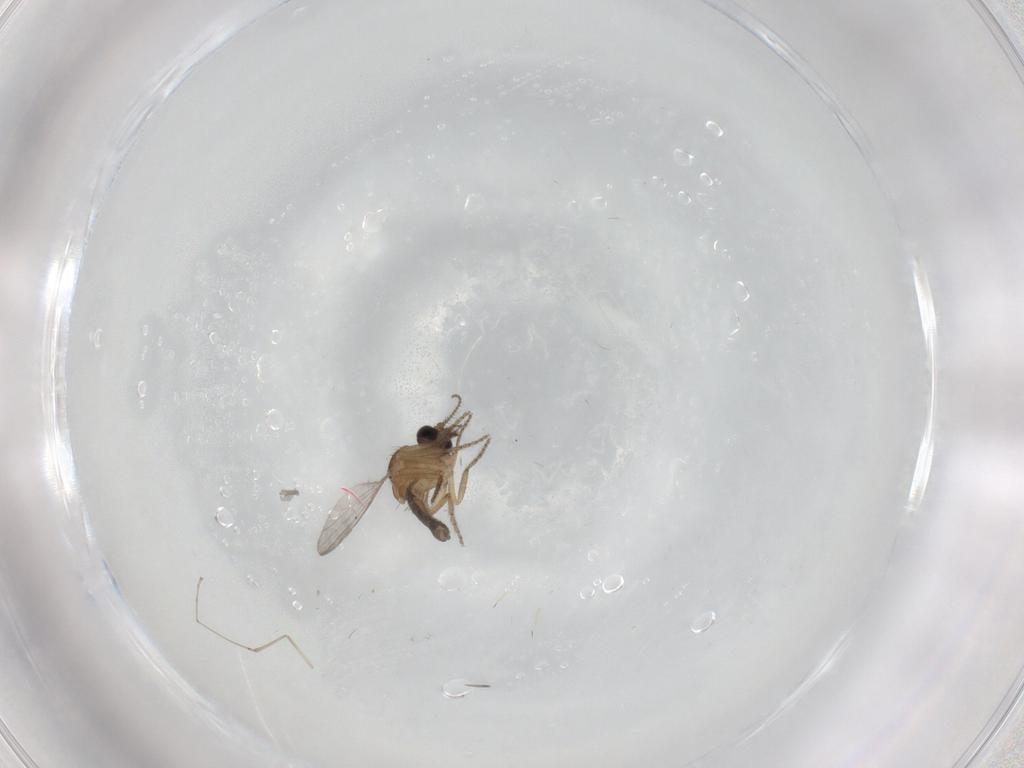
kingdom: Animalia
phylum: Arthropoda
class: Insecta
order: Diptera
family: Ceratopogonidae
